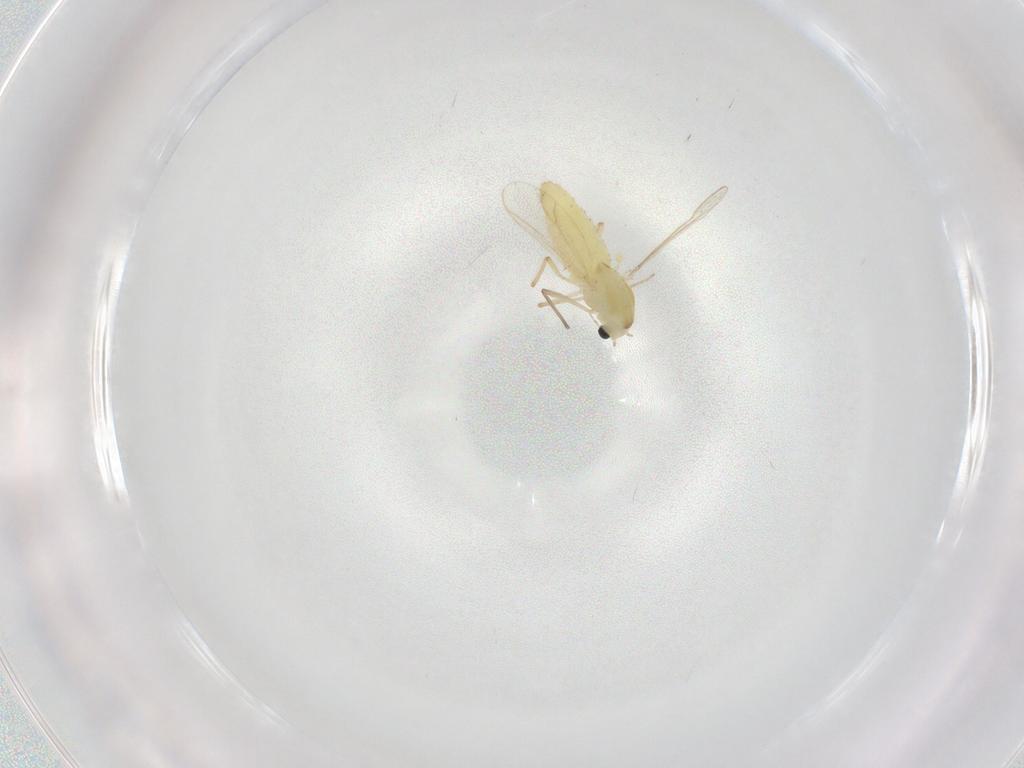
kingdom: Animalia
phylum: Arthropoda
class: Insecta
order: Diptera
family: Chironomidae
